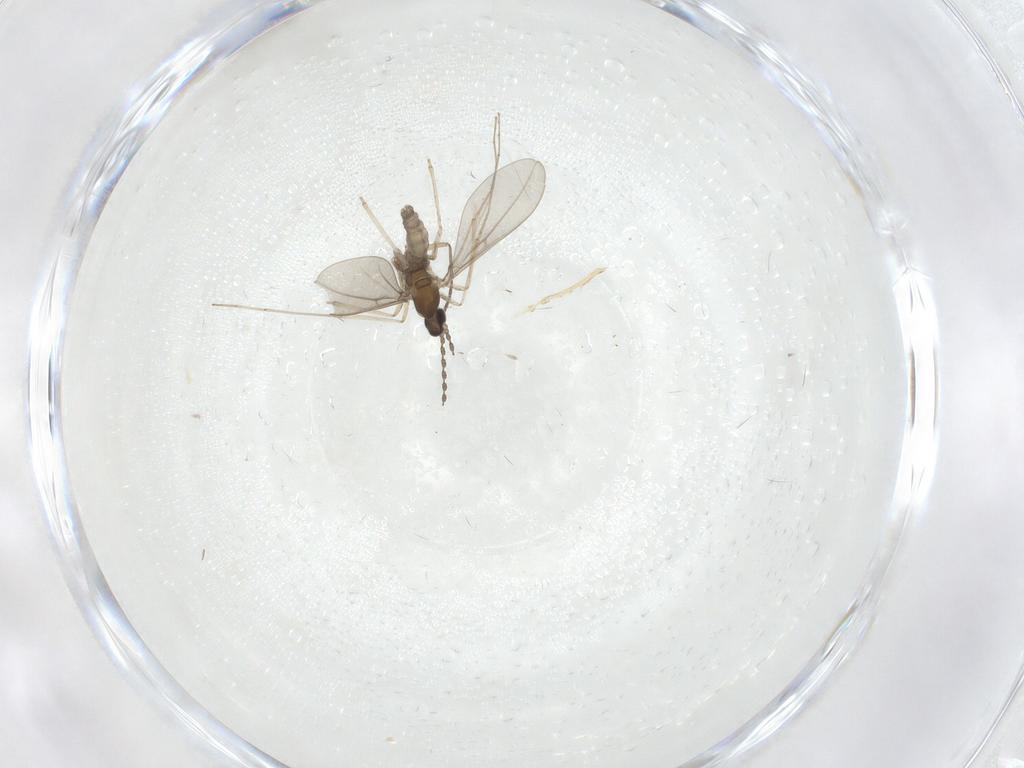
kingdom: Animalia
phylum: Arthropoda
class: Insecta
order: Diptera
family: Cecidomyiidae
